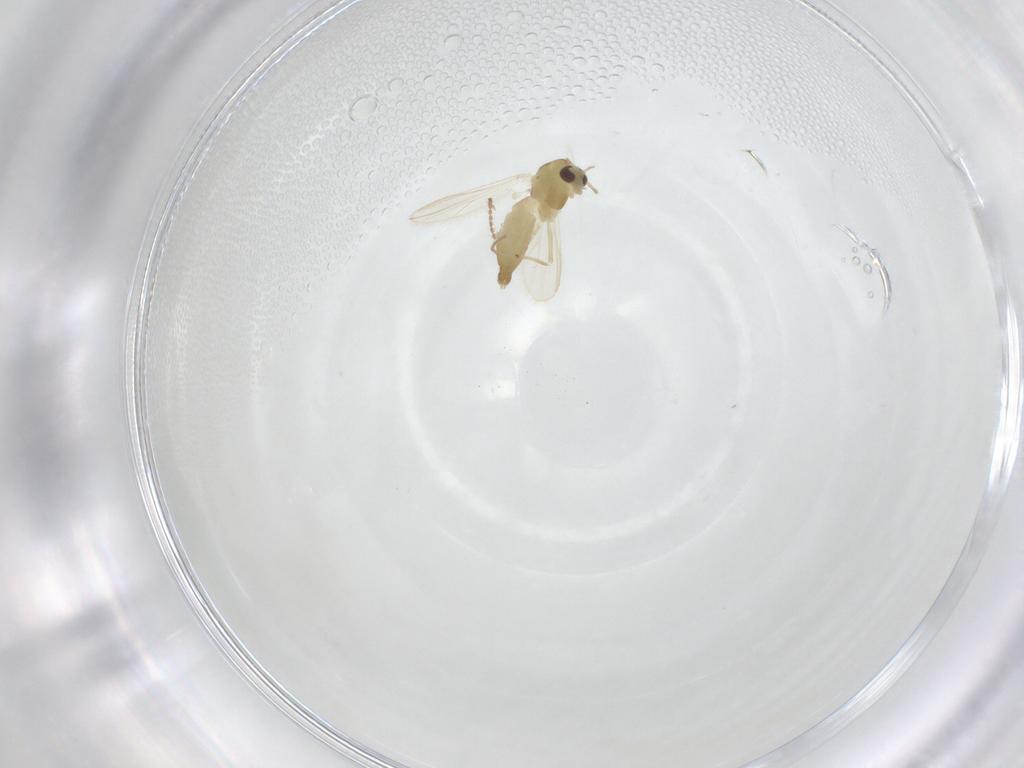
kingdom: Animalia
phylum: Arthropoda
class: Insecta
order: Diptera
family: Chironomidae
